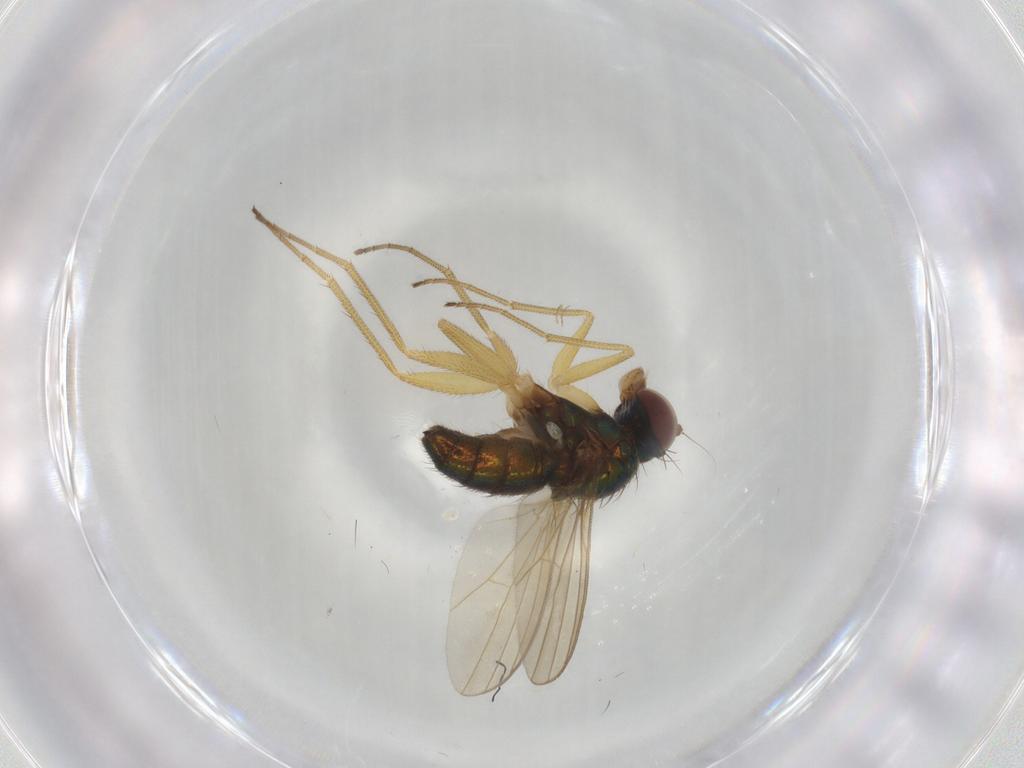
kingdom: Animalia
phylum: Arthropoda
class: Insecta
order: Diptera
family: Dolichopodidae
